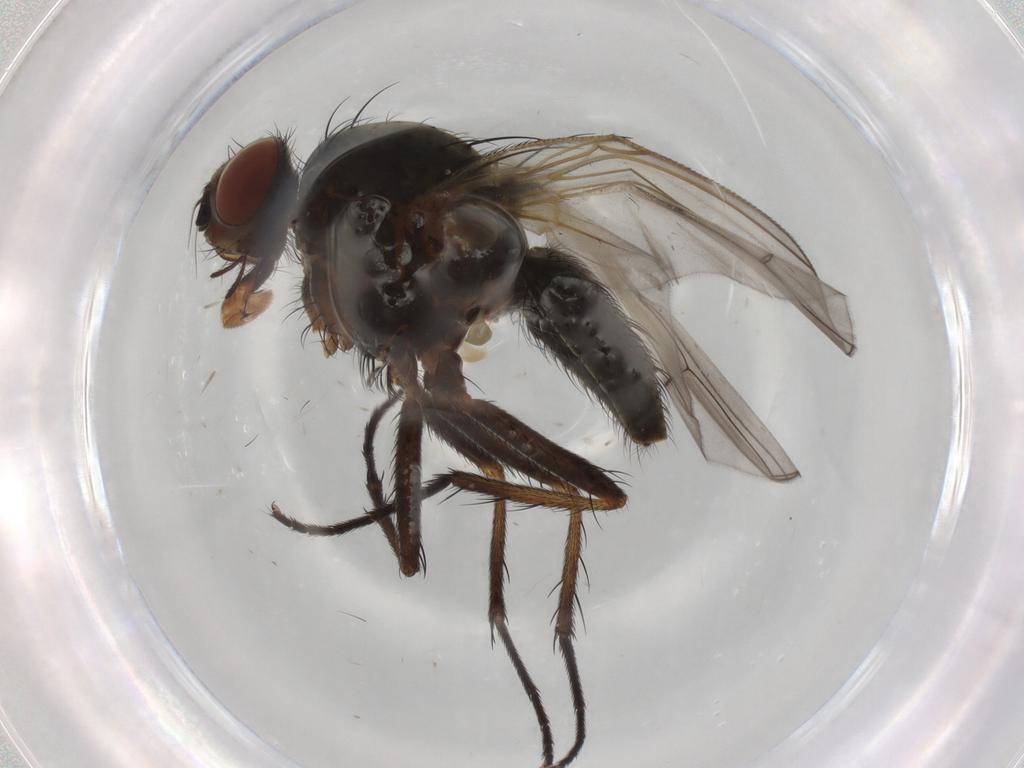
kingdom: Animalia
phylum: Arthropoda
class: Insecta
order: Diptera
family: Anthomyiidae
